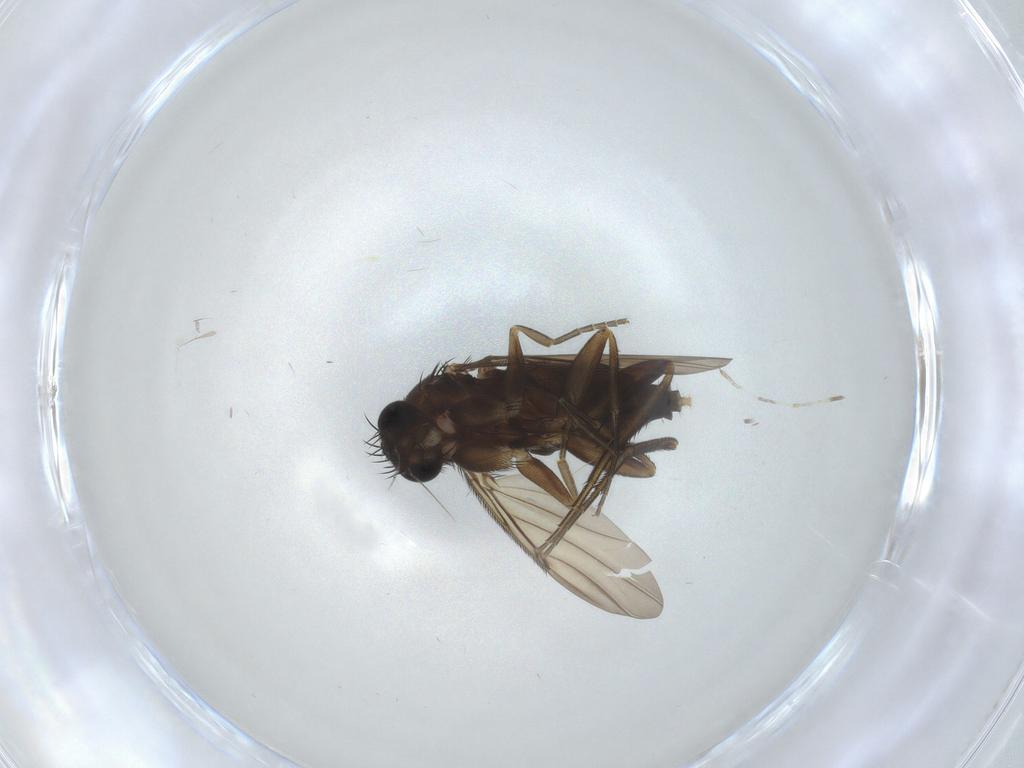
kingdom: Animalia
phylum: Arthropoda
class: Insecta
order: Diptera
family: Phoridae
